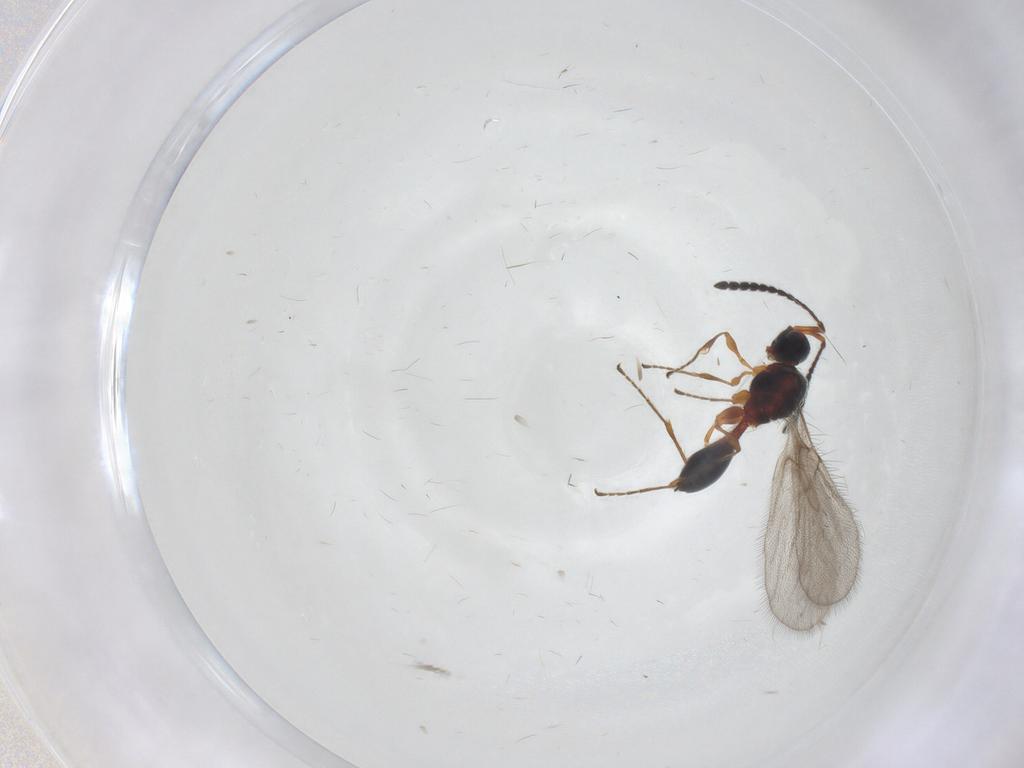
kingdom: Animalia
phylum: Arthropoda
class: Insecta
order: Hymenoptera
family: Diapriidae
